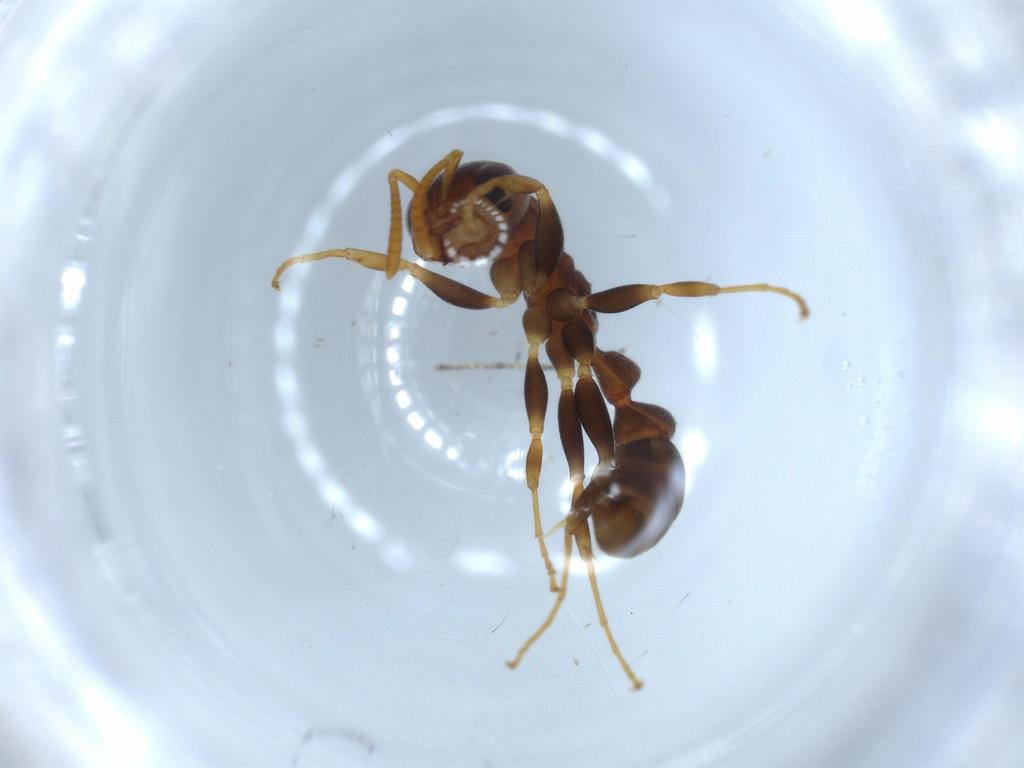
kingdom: Animalia
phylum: Arthropoda
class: Insecta
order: Hymenoptera
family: Formicidae
